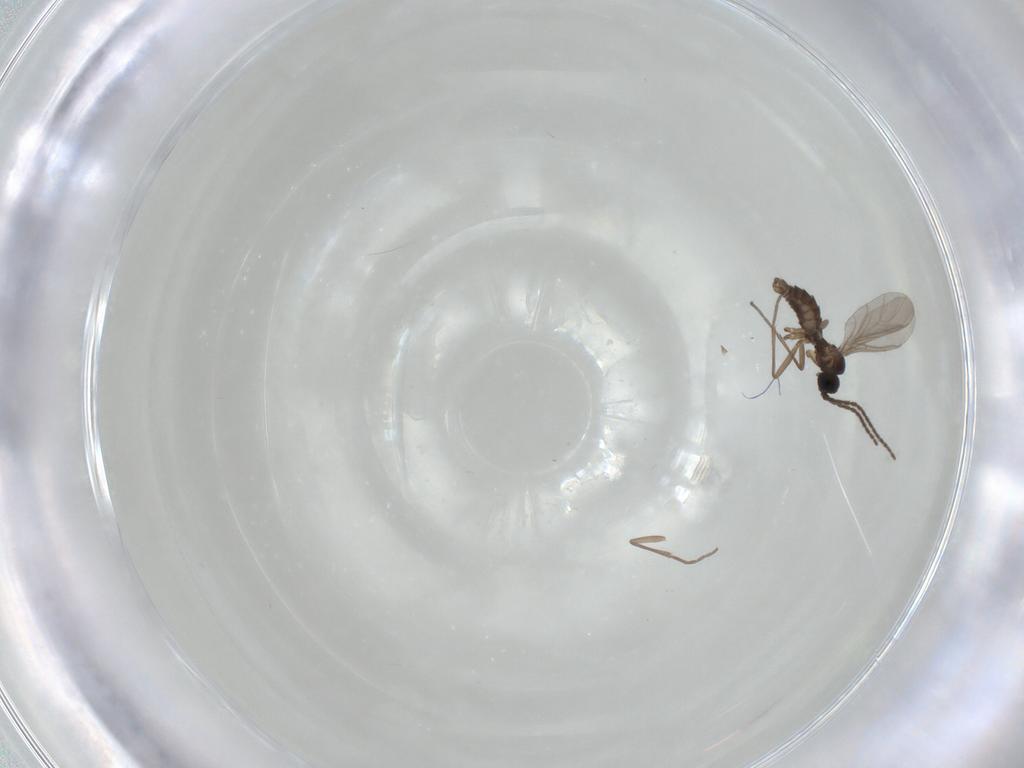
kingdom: Animalia
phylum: Arthropoda
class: Insecta
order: Diptera
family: Sciaridae
